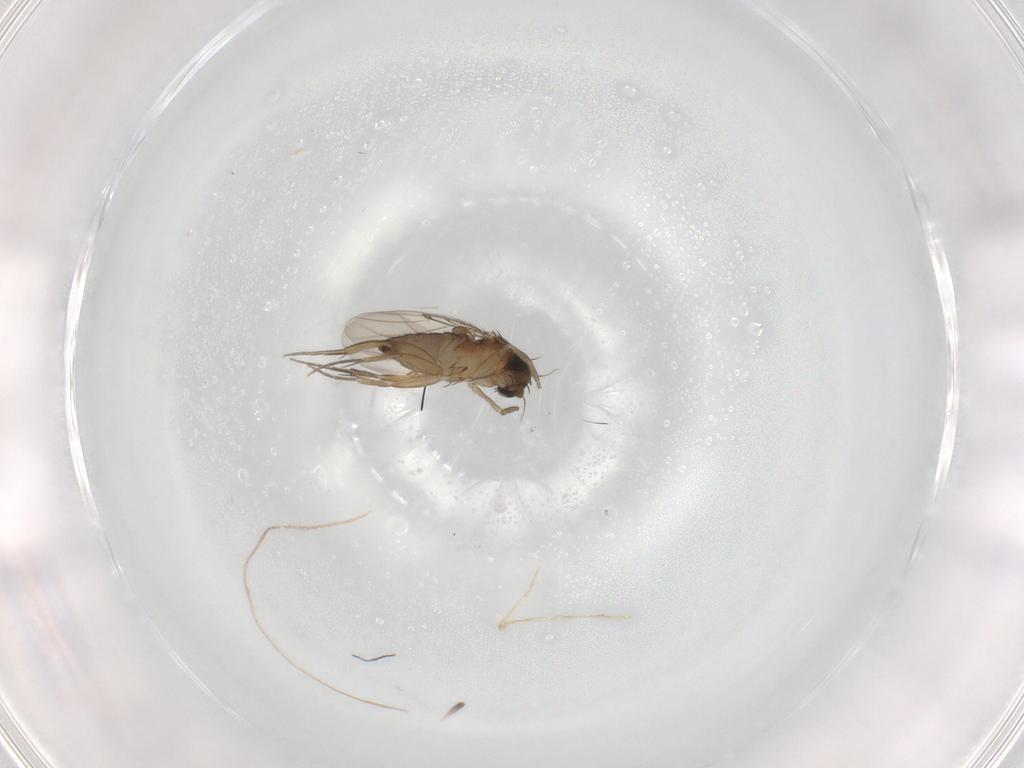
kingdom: Animalia
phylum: Arthropoda
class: Insecta
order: Diptera
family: Phoridae
